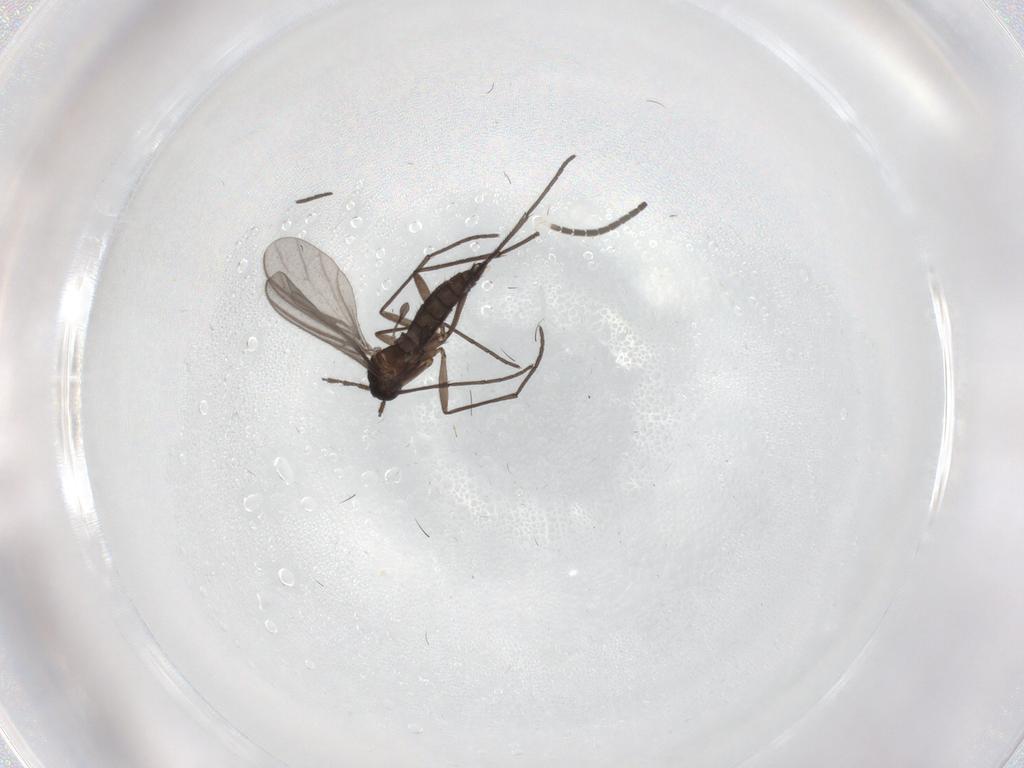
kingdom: Animalia
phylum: Arthropoda
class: Insecta
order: Diptera
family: Sciaridae
